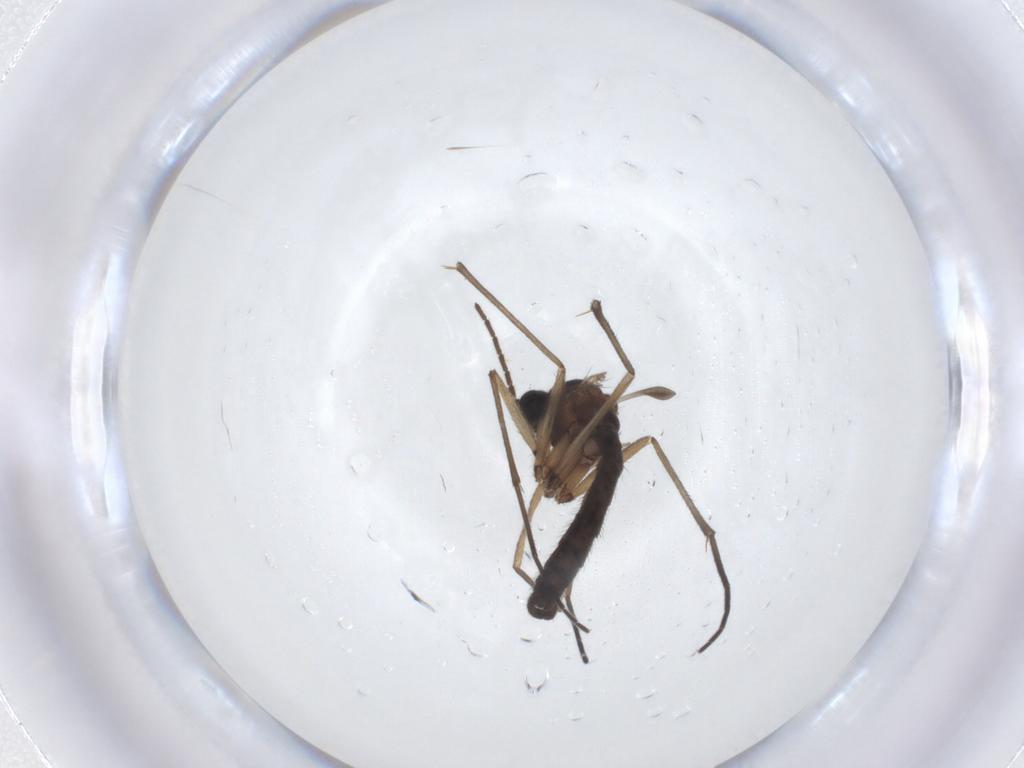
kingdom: Animalia
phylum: Arthropoda
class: Insecta
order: Diptera
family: Sciaridae
